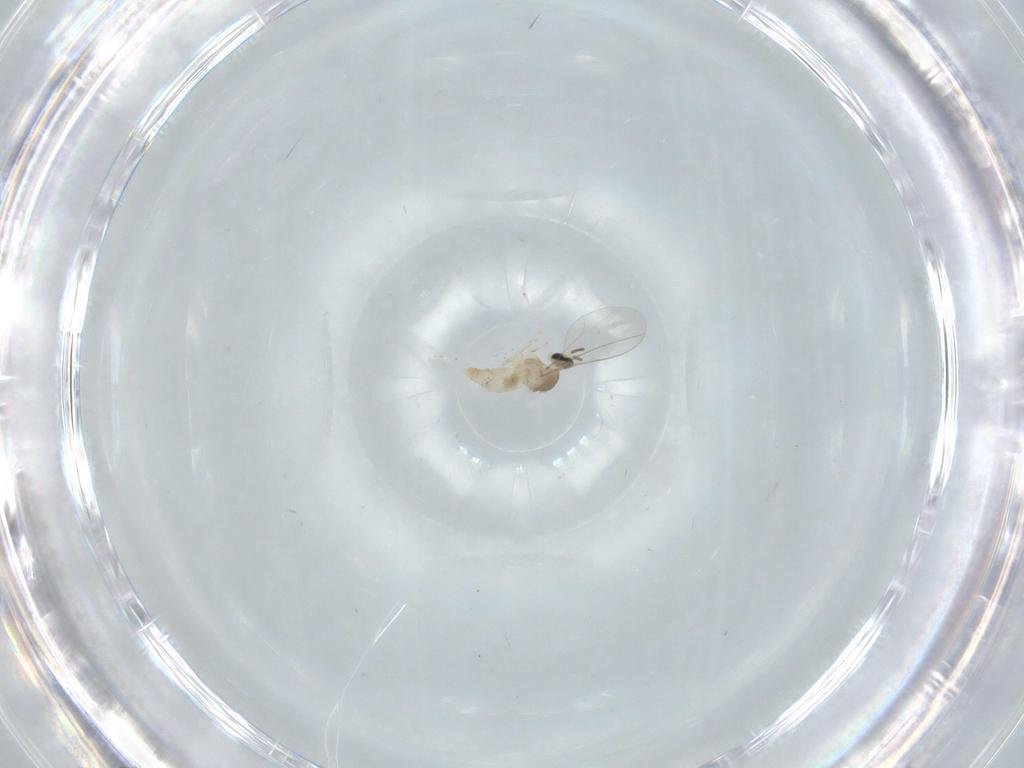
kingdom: Animalia
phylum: Arthropoda
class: Insecta
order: Diptera
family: Cecidomyiidae
